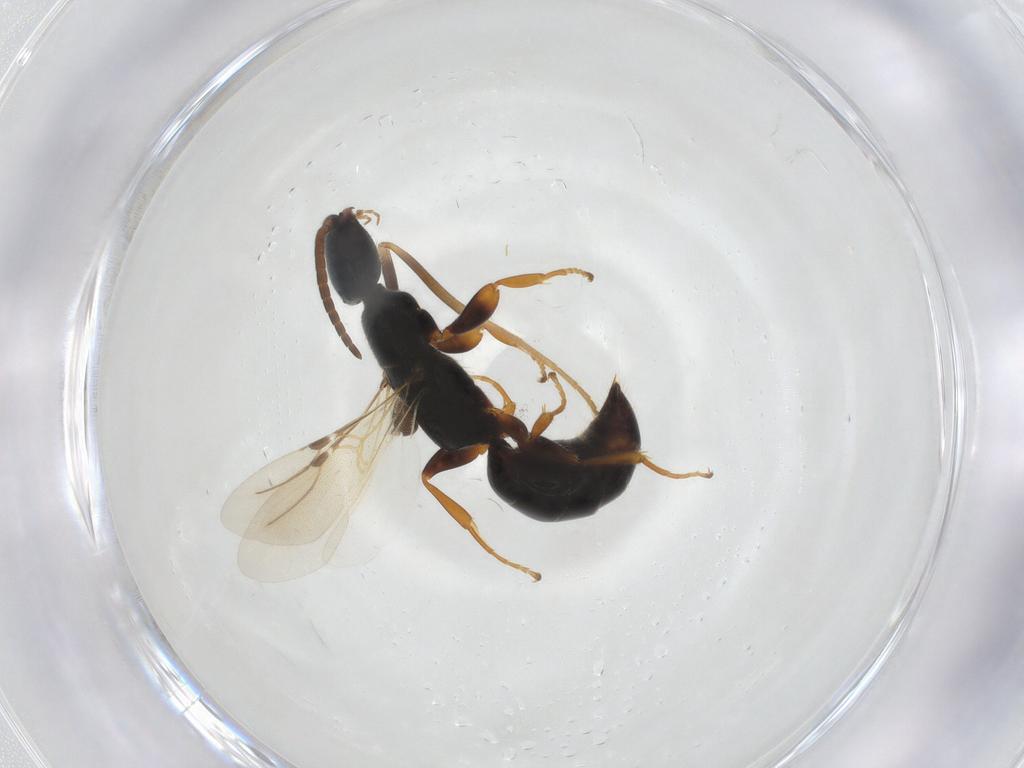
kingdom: Animalia
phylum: Arthropoda
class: Insecta
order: Hymenoptera
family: Bethylidae
